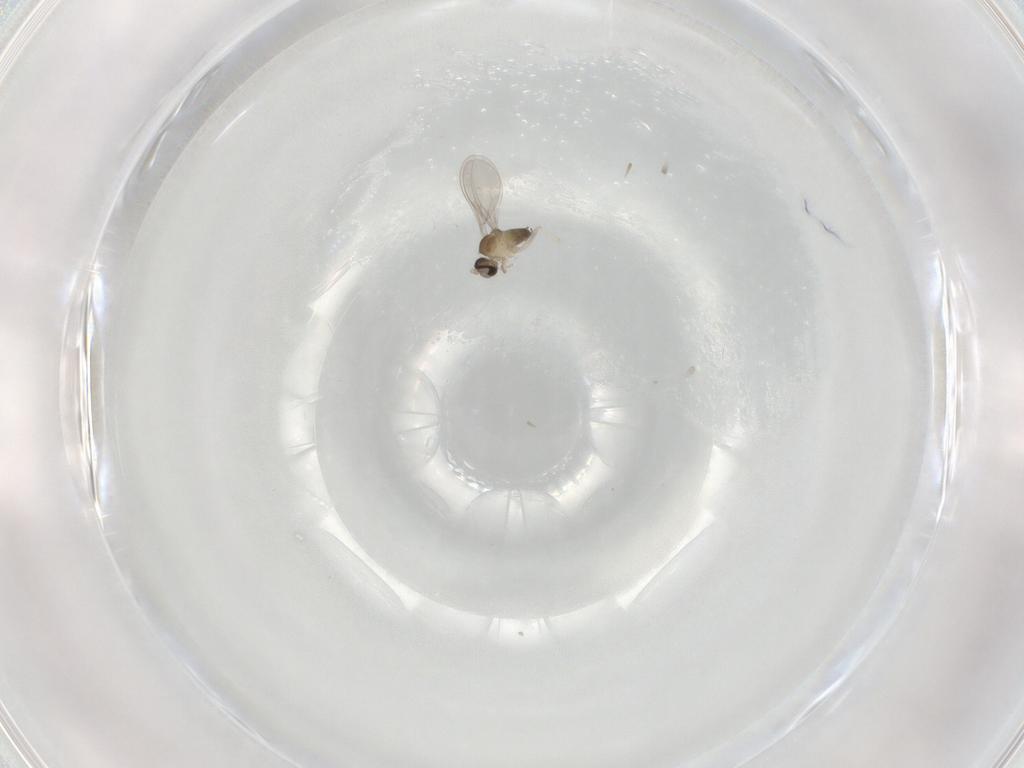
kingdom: Animalia
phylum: Arthropoda
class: Insecta
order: Diptera
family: Cecidomyiidae
